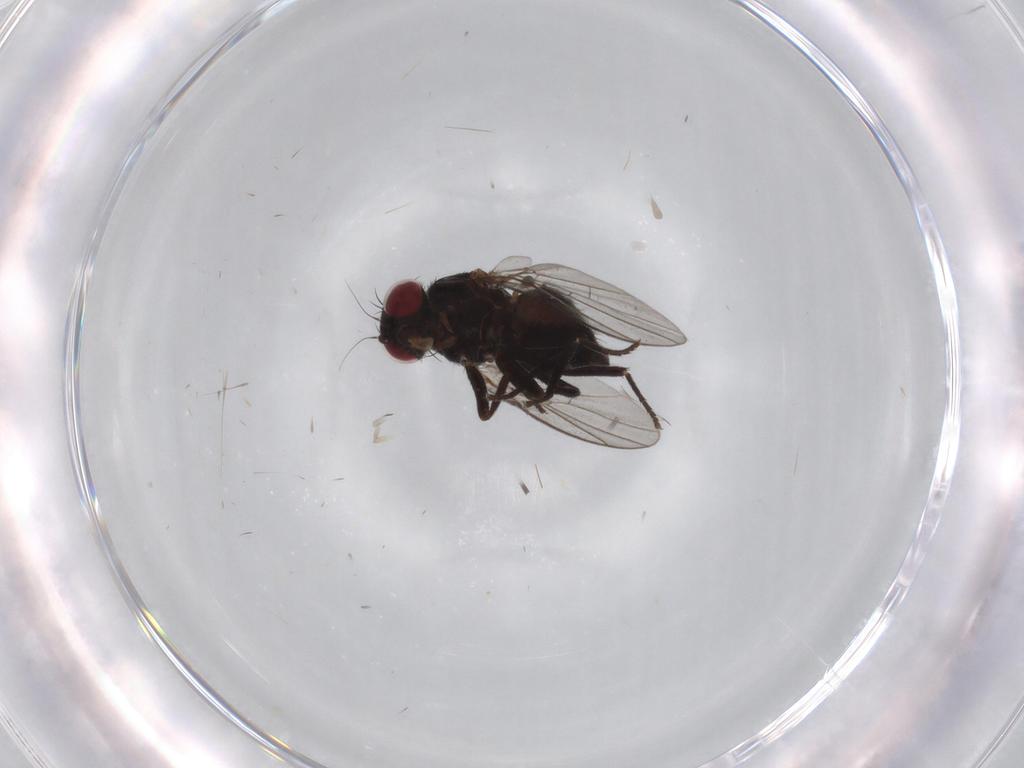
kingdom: Animalia
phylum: Arthropoda
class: Insecta
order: Diptera
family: Agromyzidae
